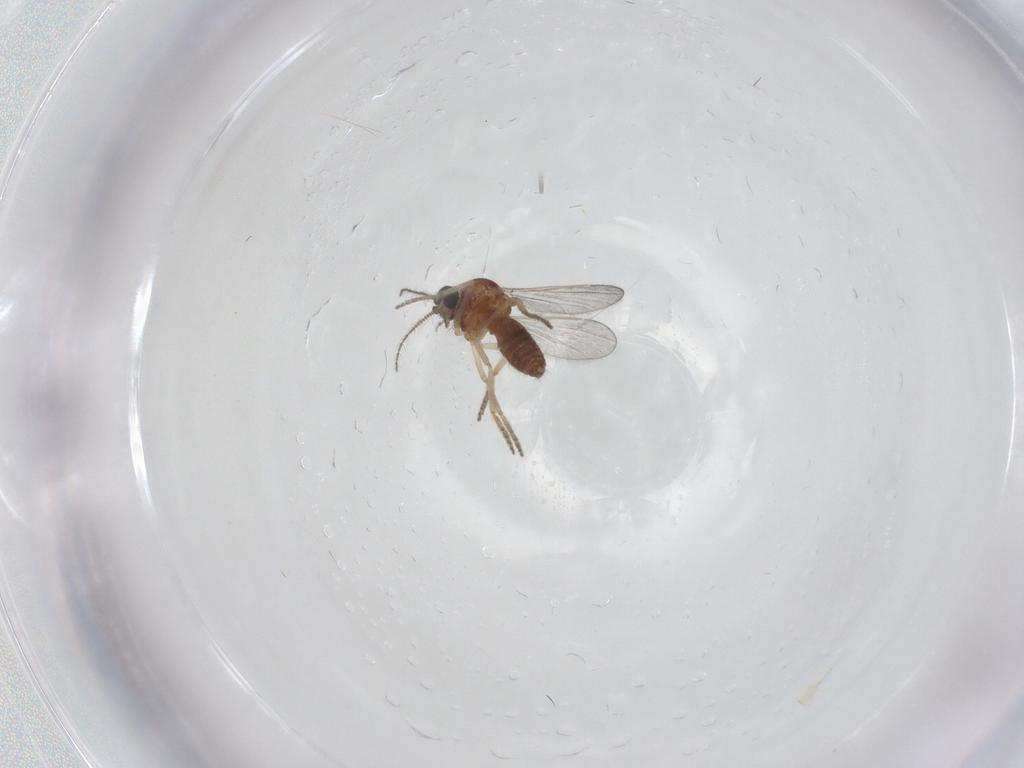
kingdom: Animalia
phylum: Arthropoda
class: Insecta
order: Diptera
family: Ceratopogonidae
